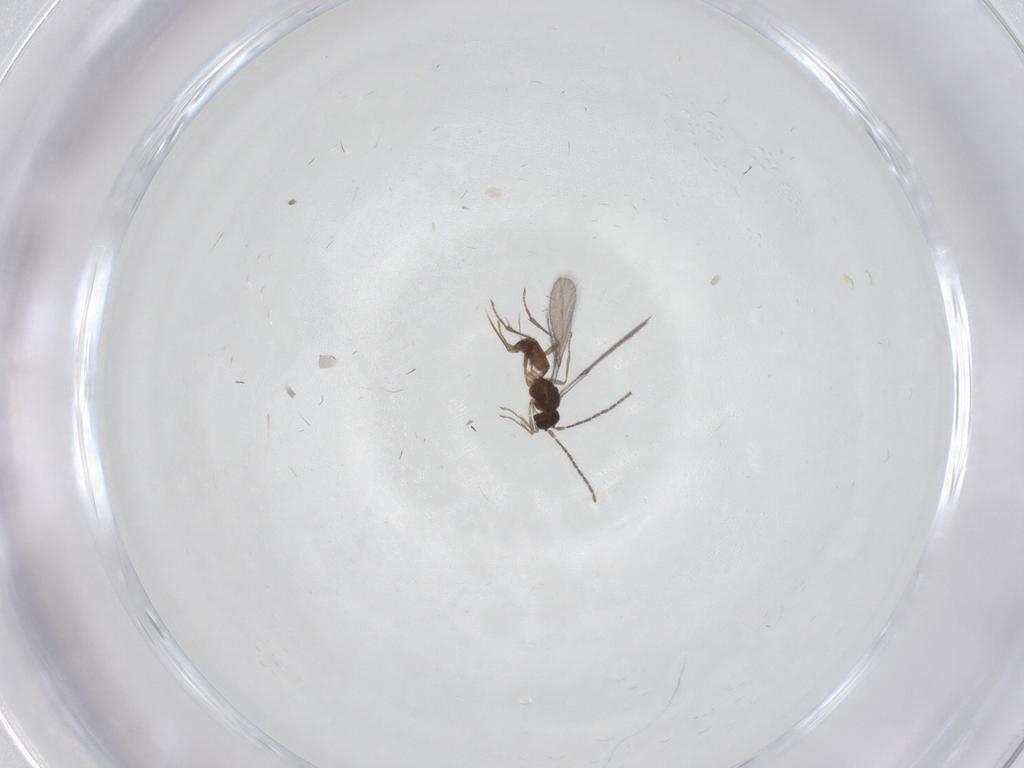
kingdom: Animalia
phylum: Arthropoda
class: Insecta
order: Hymenoptera
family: Braconidae
